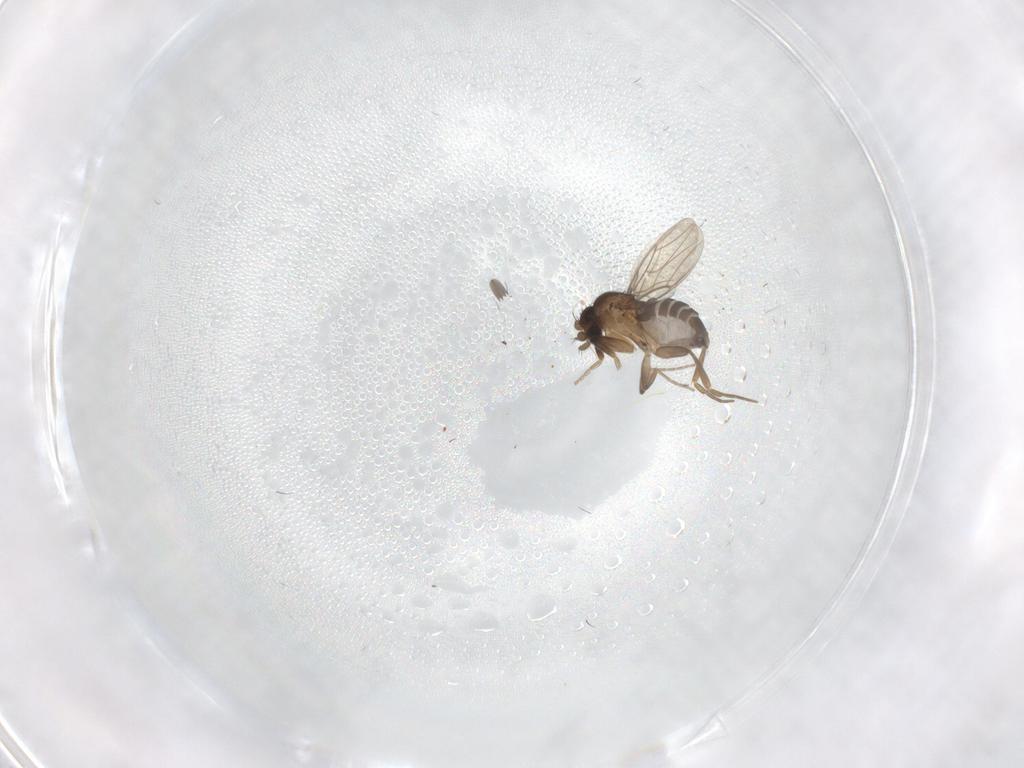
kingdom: Animalia
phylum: Arthropoda
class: Insecta
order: Diptera
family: Phoridae
